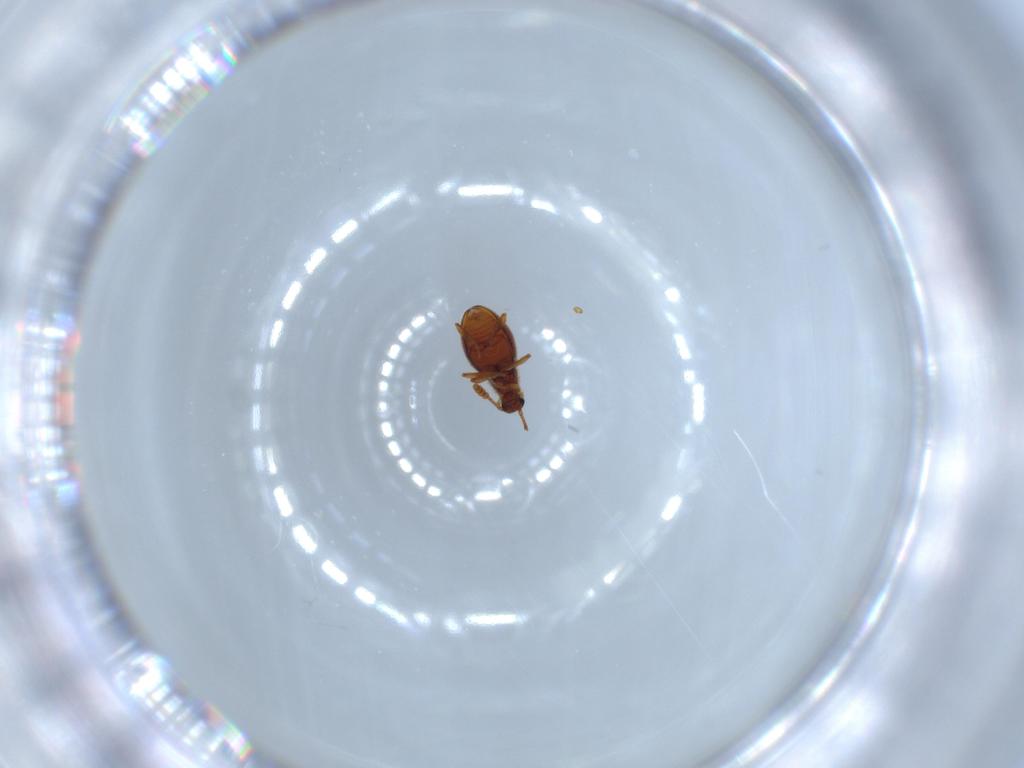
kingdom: Animalia
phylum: Arthropoda
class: Insecta
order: Coleoptera
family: Staphylinidae
